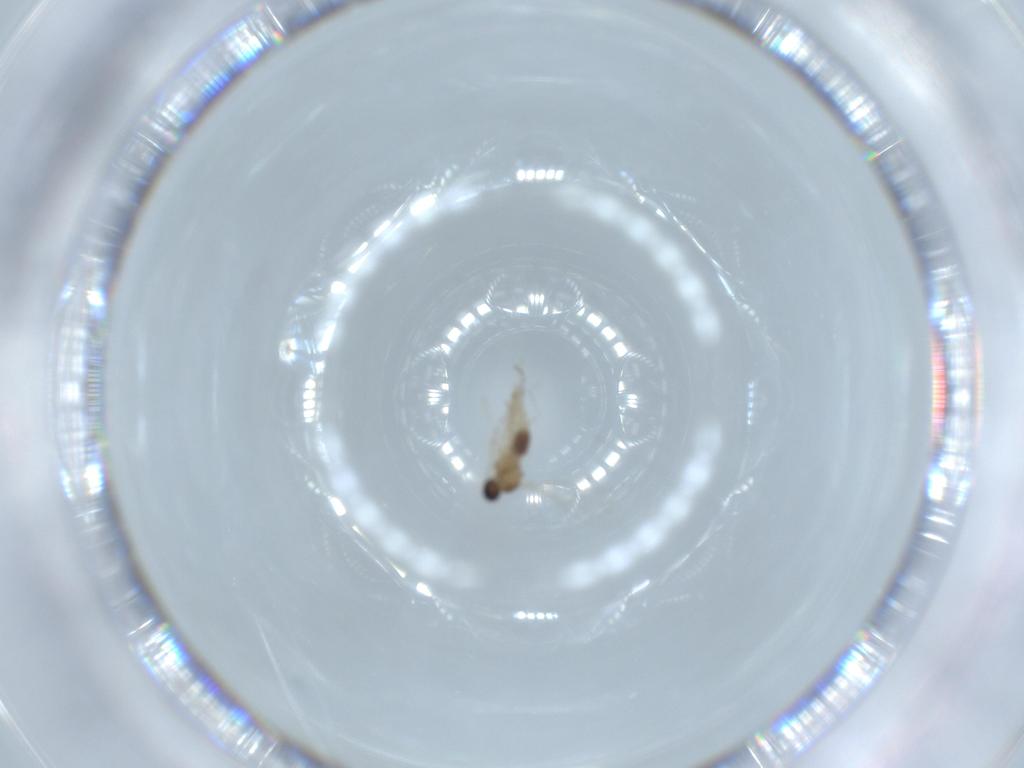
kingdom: Animalia
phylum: Arthropoda
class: Insecta
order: Diptera
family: Cecidomyiidae
